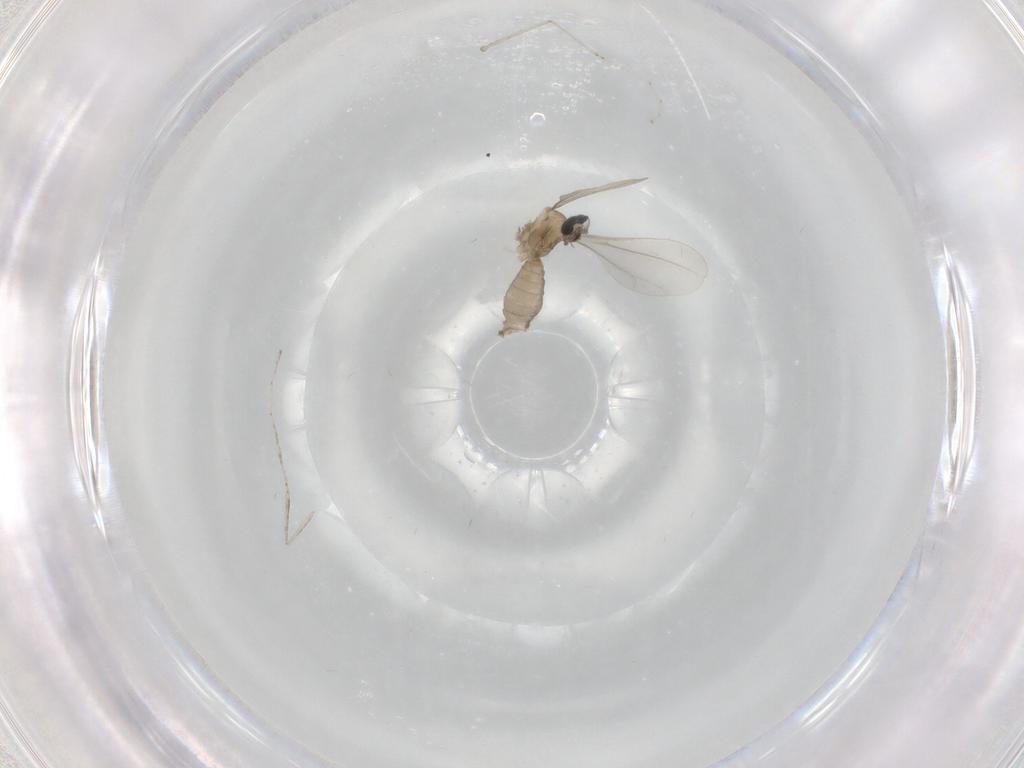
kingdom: Animalia
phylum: Arthropoda
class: Insecta
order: Diptera
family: Cecidomyiidae
